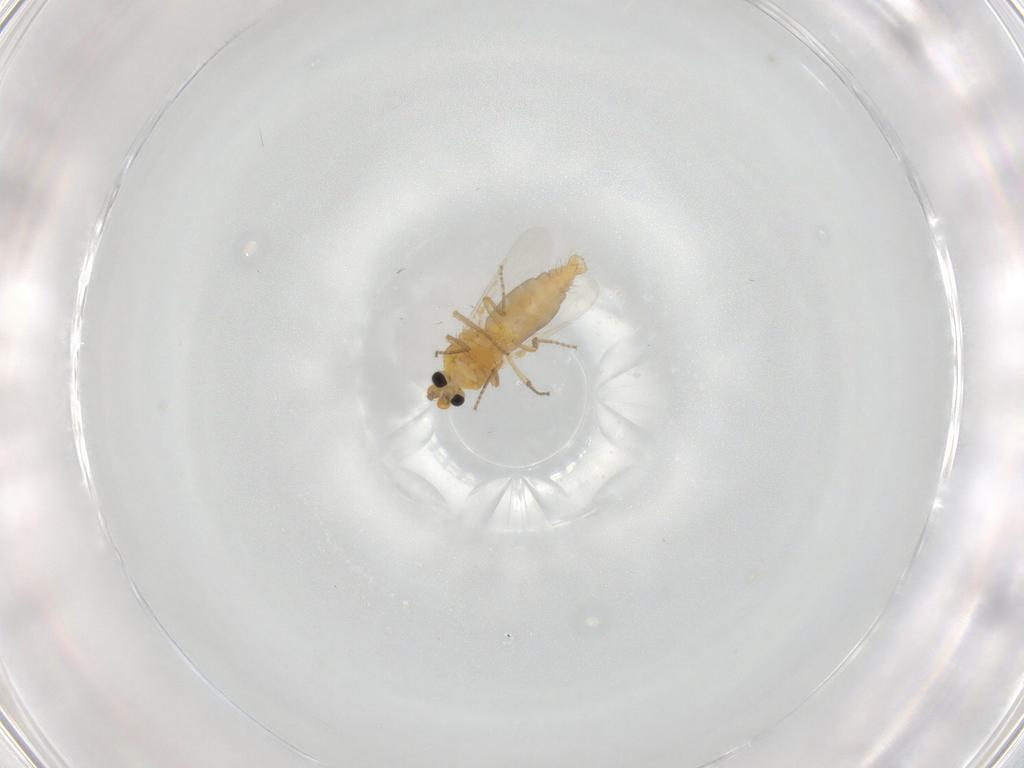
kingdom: Animalia
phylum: Arthropoda
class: Insecta
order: Diptera
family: Ceratopogonidae
